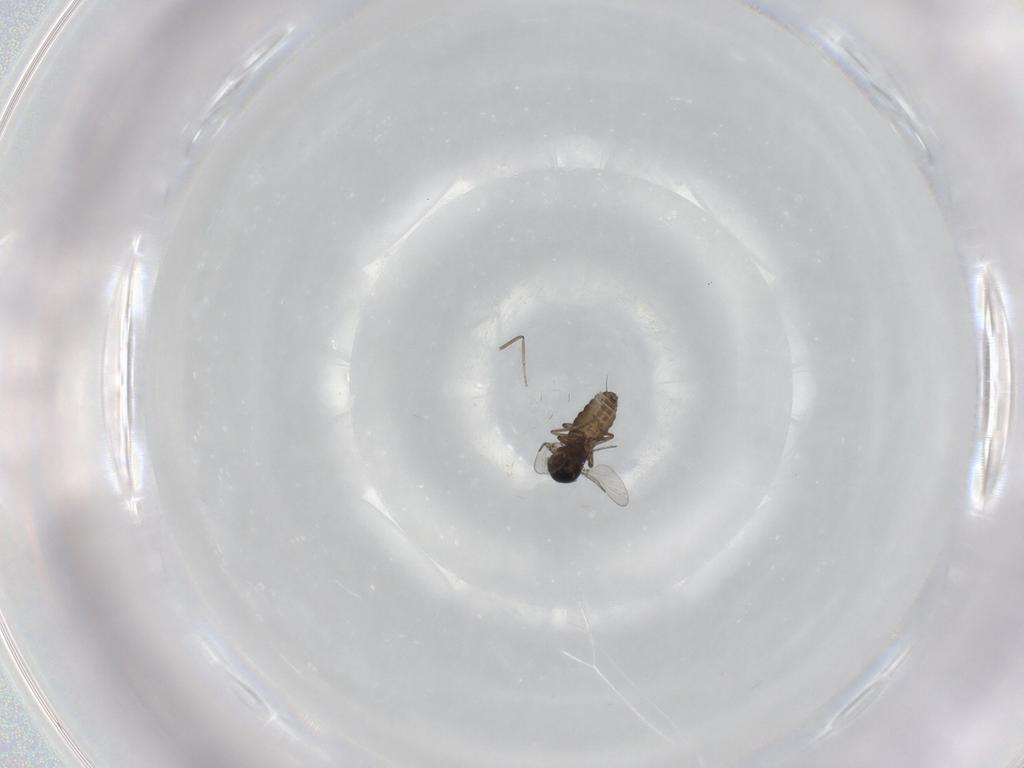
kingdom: Animalia
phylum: Arthropoda
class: Insecta
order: Diptera
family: Ceratopogonidae
